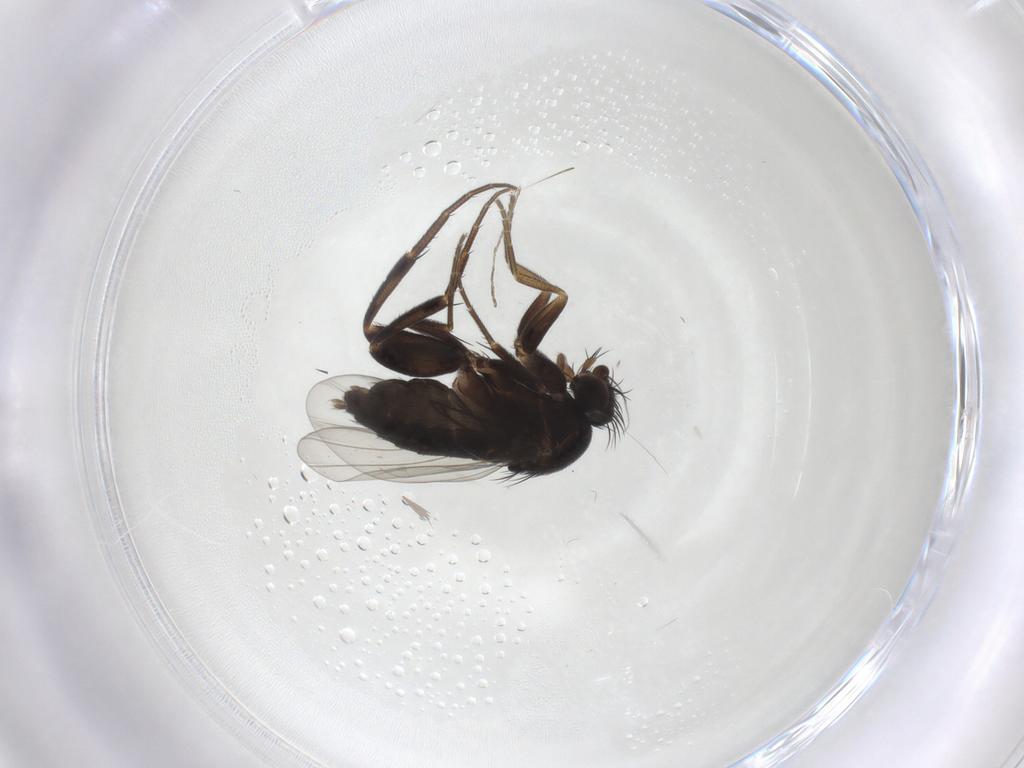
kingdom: Animalia
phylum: Arthropoda
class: Insecta
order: Diptera
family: Phoridae
